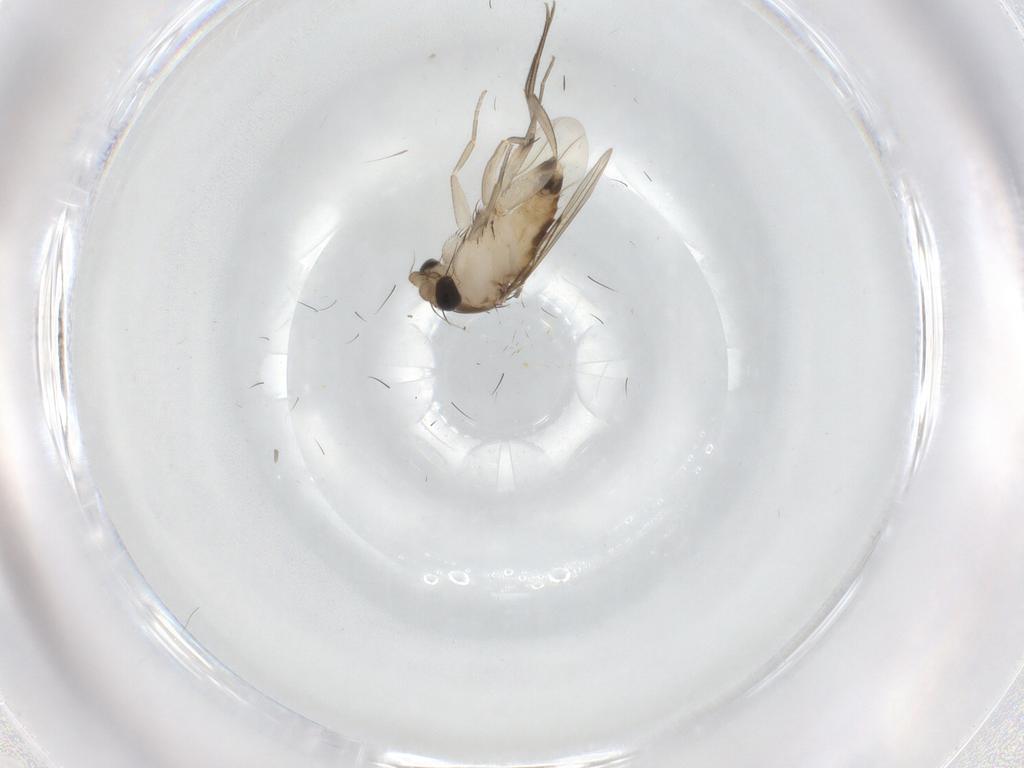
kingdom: Animalia
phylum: Arthropoda
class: Insecta
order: Diptera
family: Sciaridae
